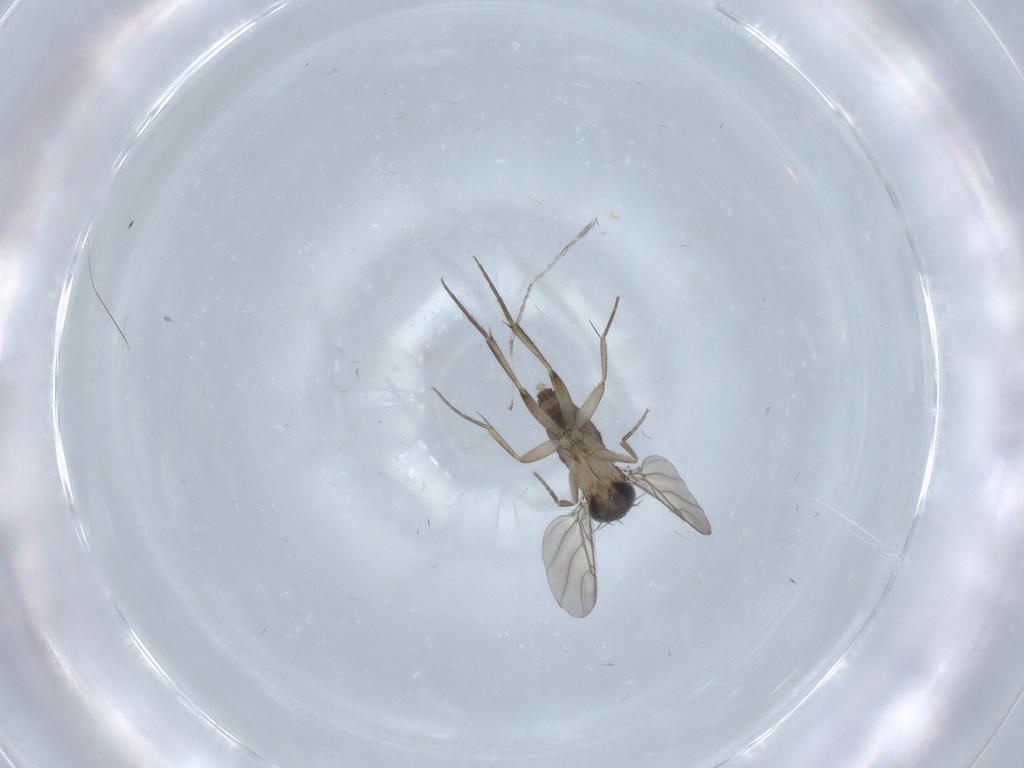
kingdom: Animalia
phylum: Arthropoda
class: Insecta
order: Diptera
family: Phoridae
